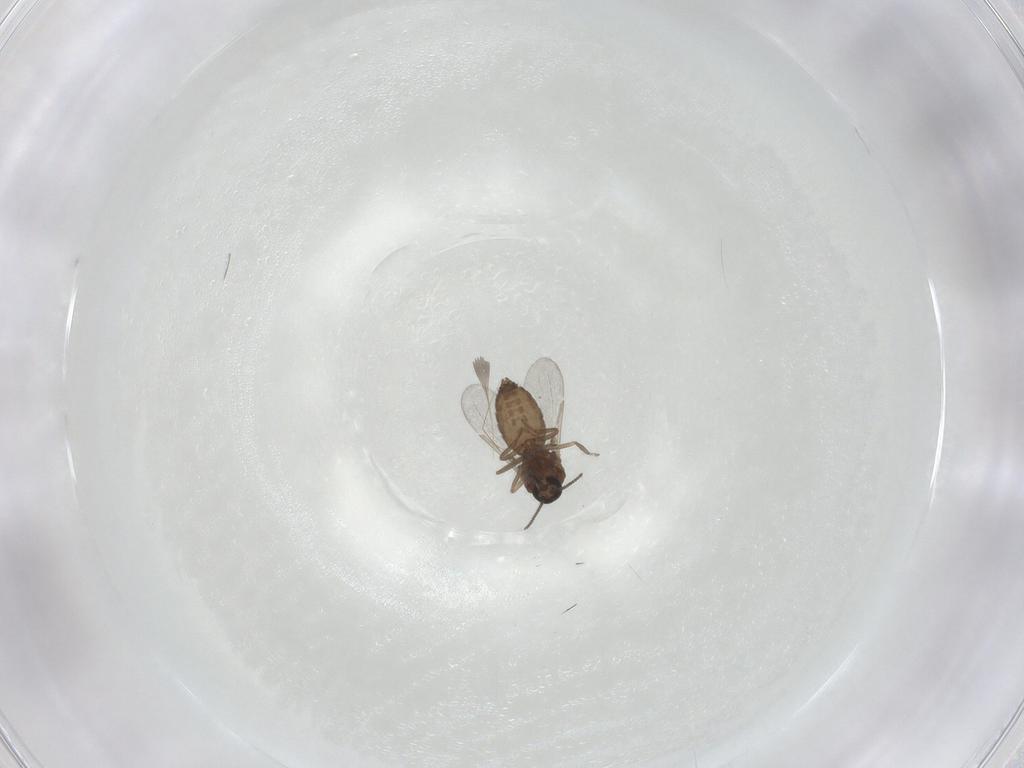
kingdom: Animalia
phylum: Arthropoda
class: Insecta
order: Diptera
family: Ceratopogonidae
